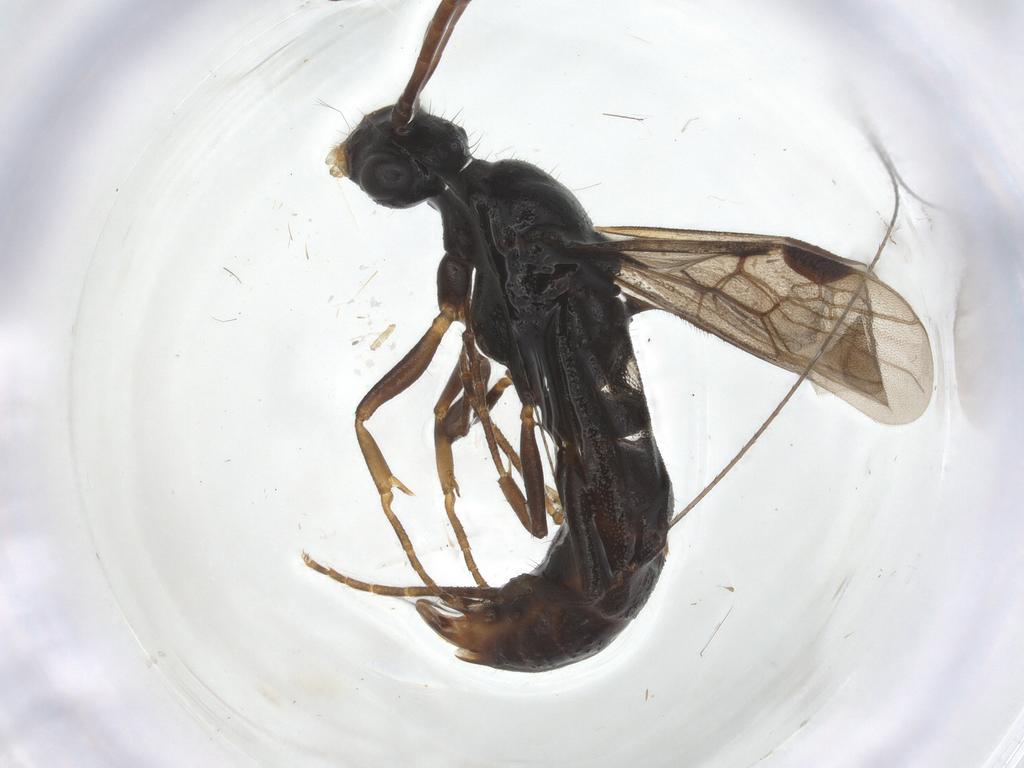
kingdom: Animalia
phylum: Arthropoda
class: Insecta
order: Hymenoptera
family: Formicidae
